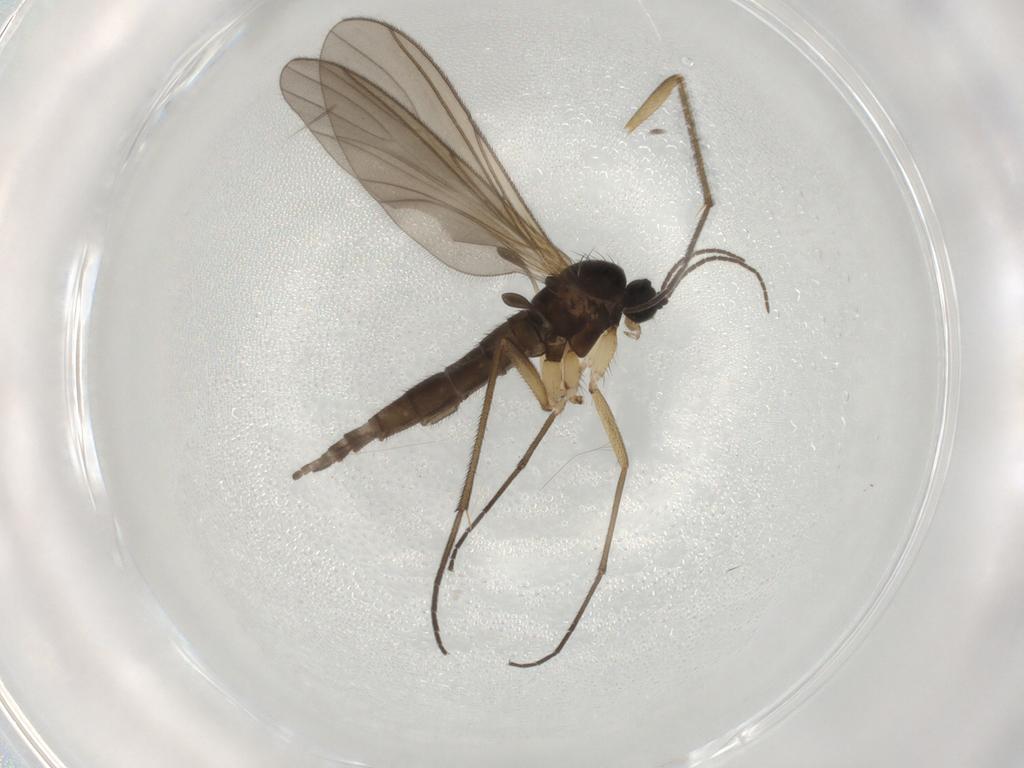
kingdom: Animalia
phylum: Arthropoda
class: Insecta
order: Diptera
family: Sciaridae
